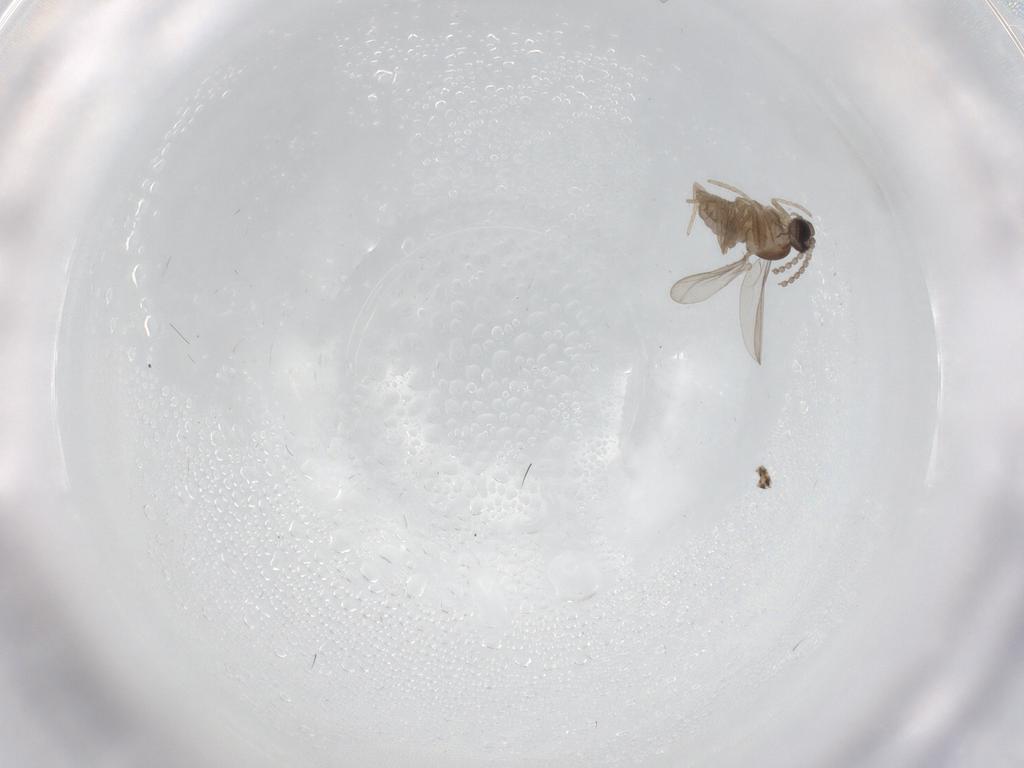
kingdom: Animalia
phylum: Arthropoda
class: Insecta
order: Diptera
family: Cecidomyiidae
